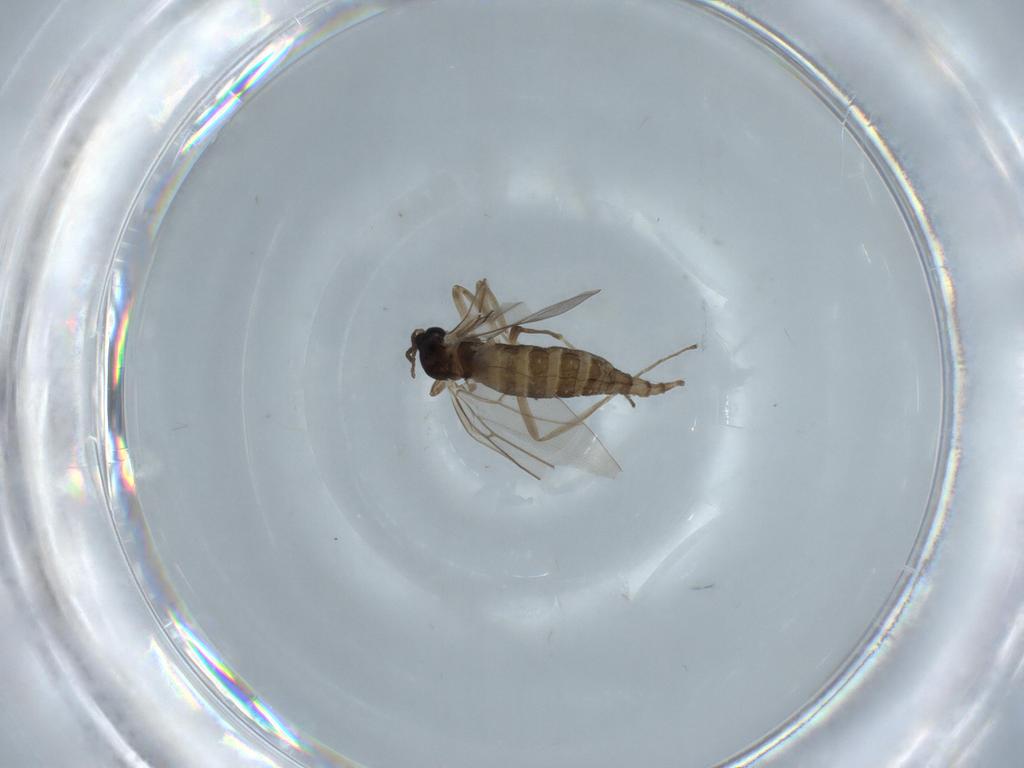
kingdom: Animalia
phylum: Arthropoda
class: Insecta
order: Diptera
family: Cecidomyiidae
